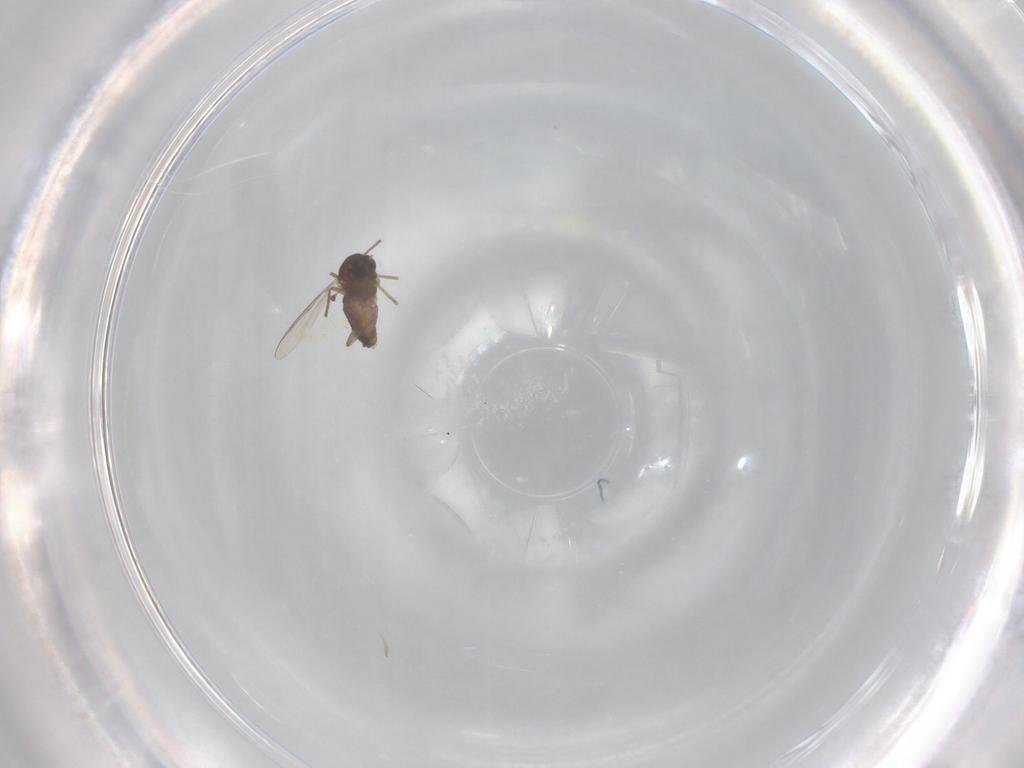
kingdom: Animalia
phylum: Arthropoda
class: Insecta
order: Diptera
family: Chironomidae
